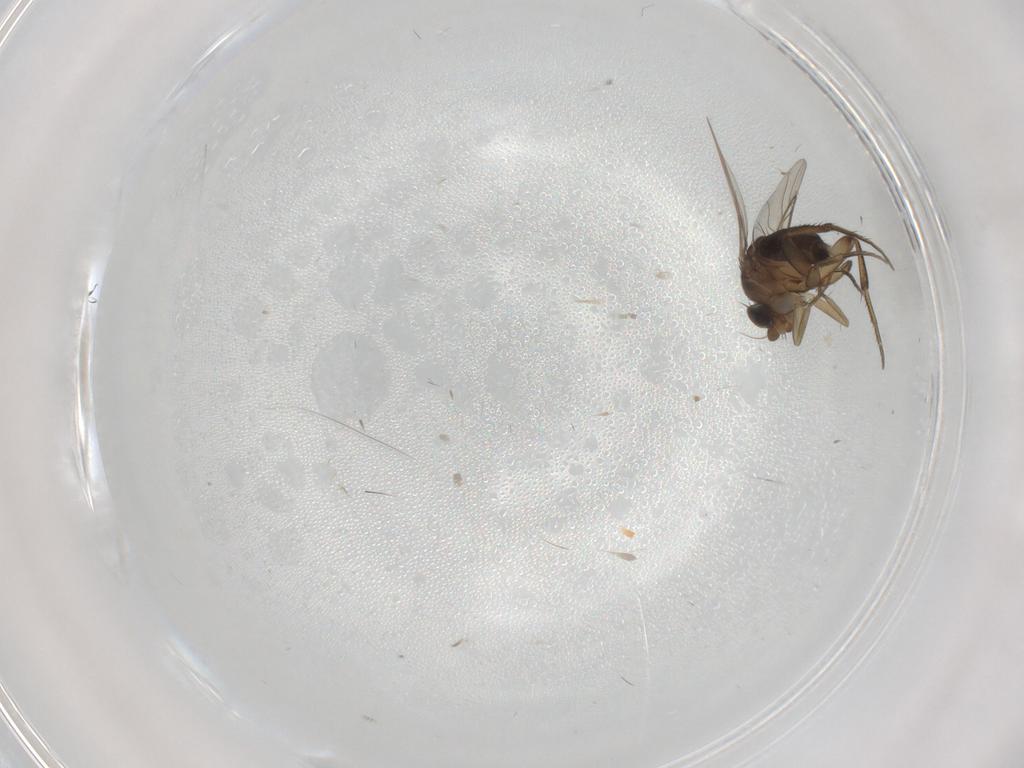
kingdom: Animalia
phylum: Arthropoda
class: Insecta
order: Diptera
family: Phoridae
